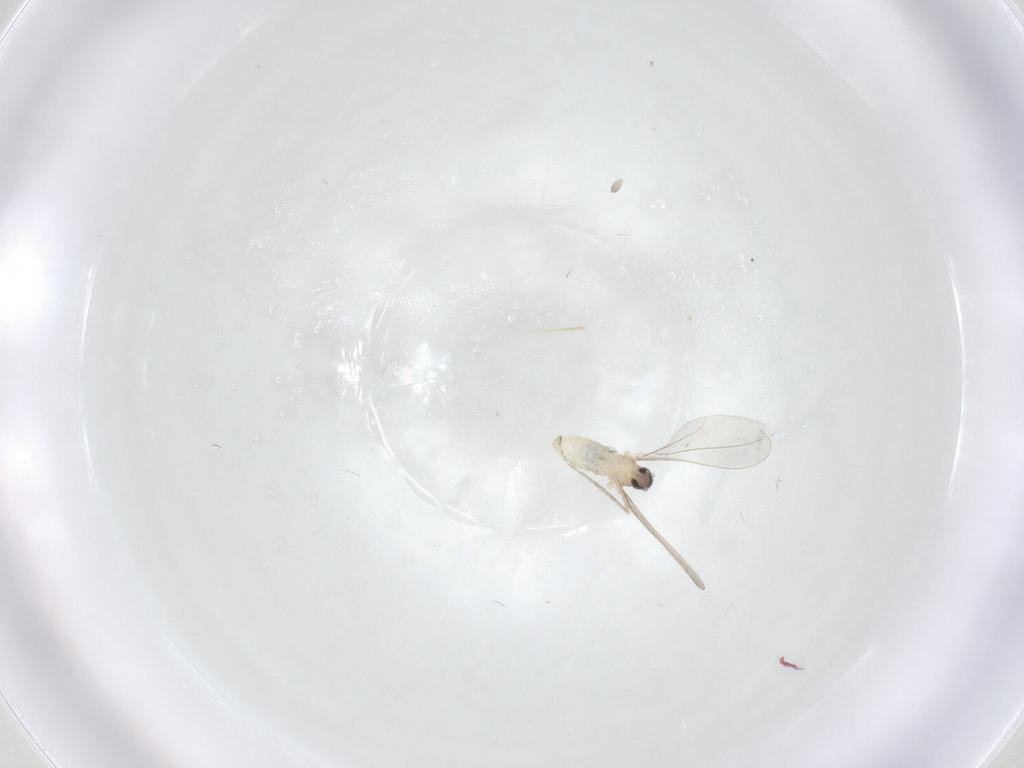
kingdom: Animalia
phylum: Arthropoda
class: Insecta
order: Diptera
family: Cecidomyiidae
